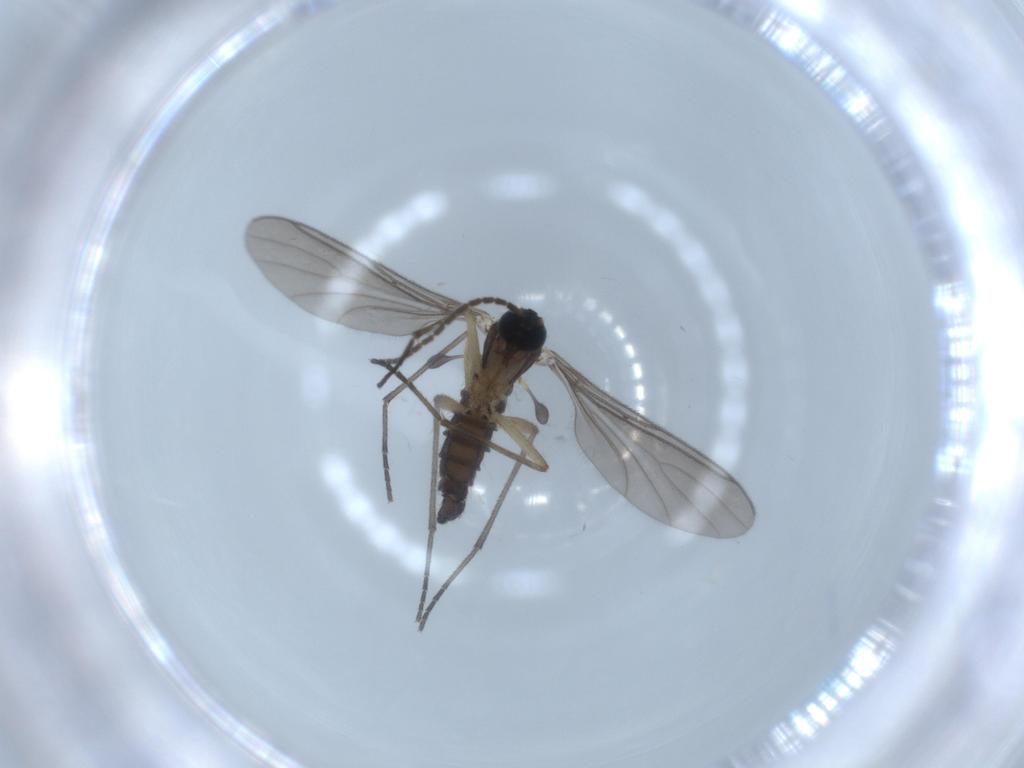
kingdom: Animalia
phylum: Arthropoda
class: Insecta
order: Diptera
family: Sciaridae
